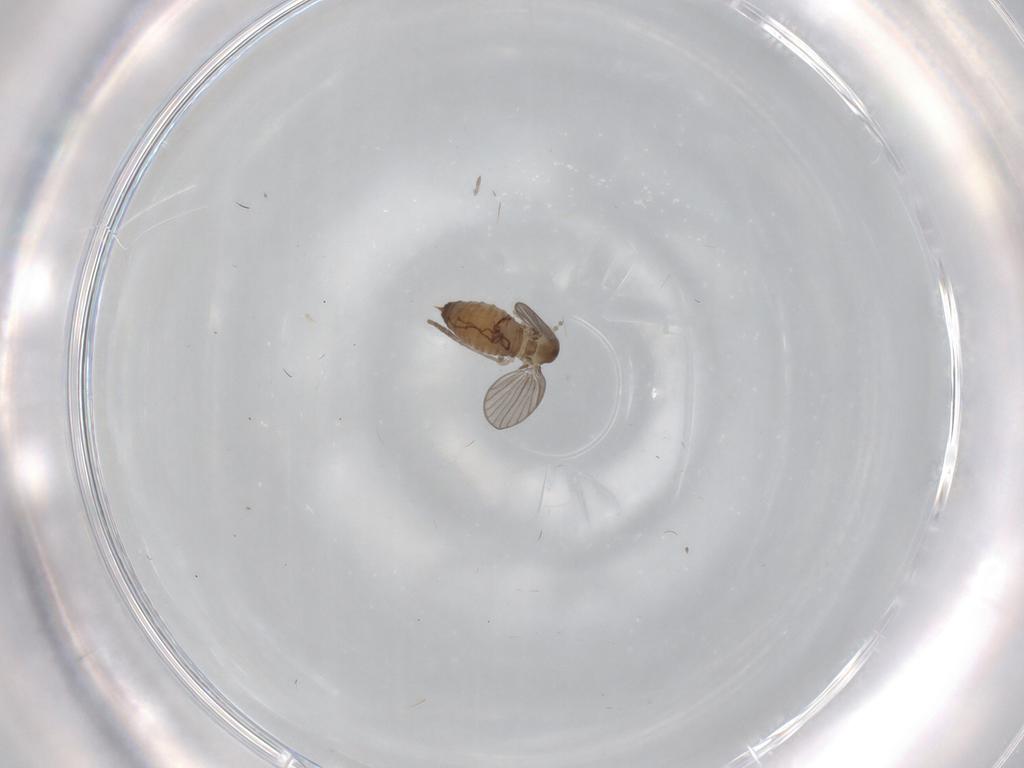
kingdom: Animalia
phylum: Arthropoda
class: Insecta
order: Diptera
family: Psychodidae
